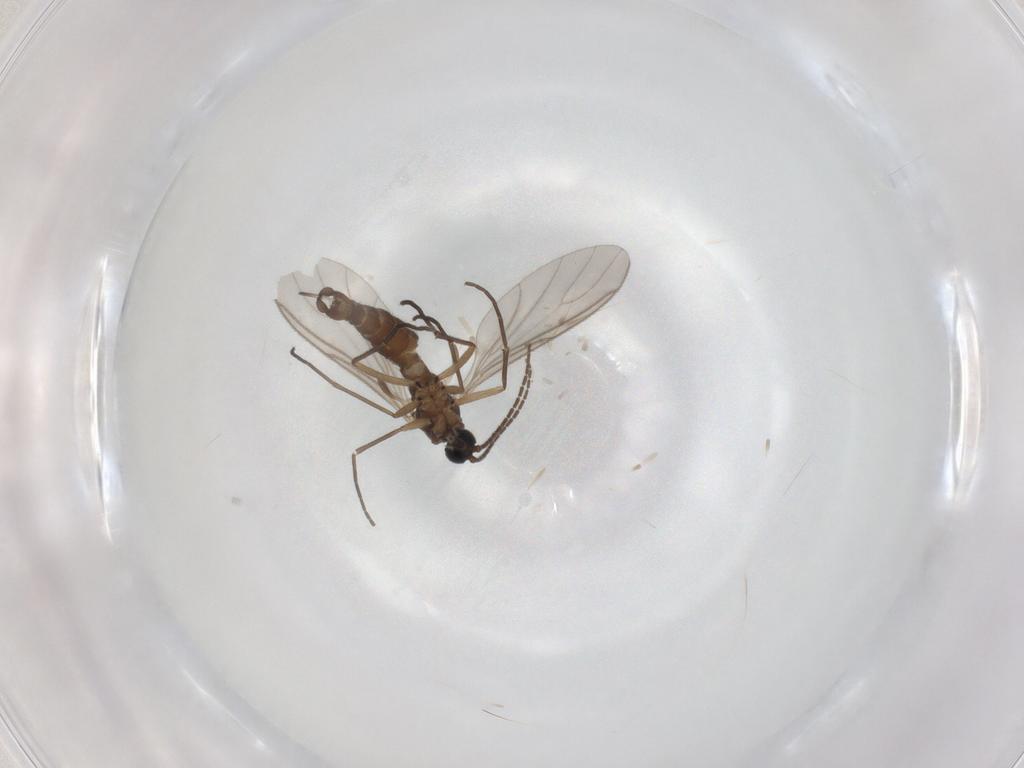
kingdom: Animalia
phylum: Arthropoda
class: Insecta
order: Diptera
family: Sciaridae
